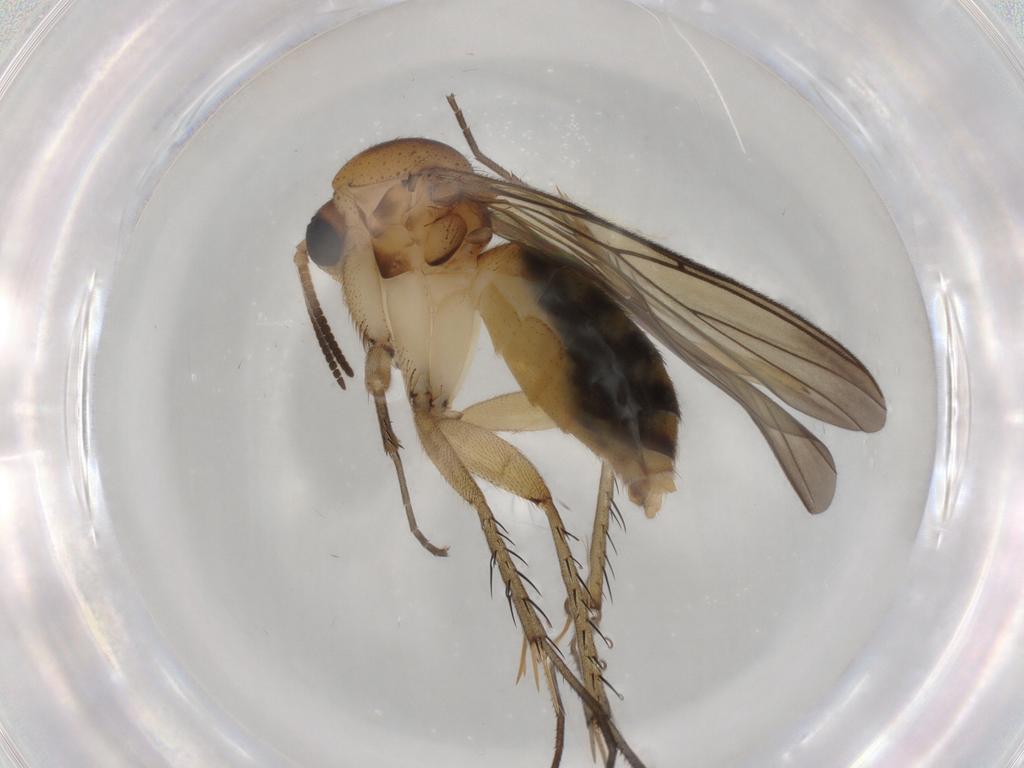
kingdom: Animalia
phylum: Arthropoda
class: Insecta
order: Diptera
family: Mycetophilidae
